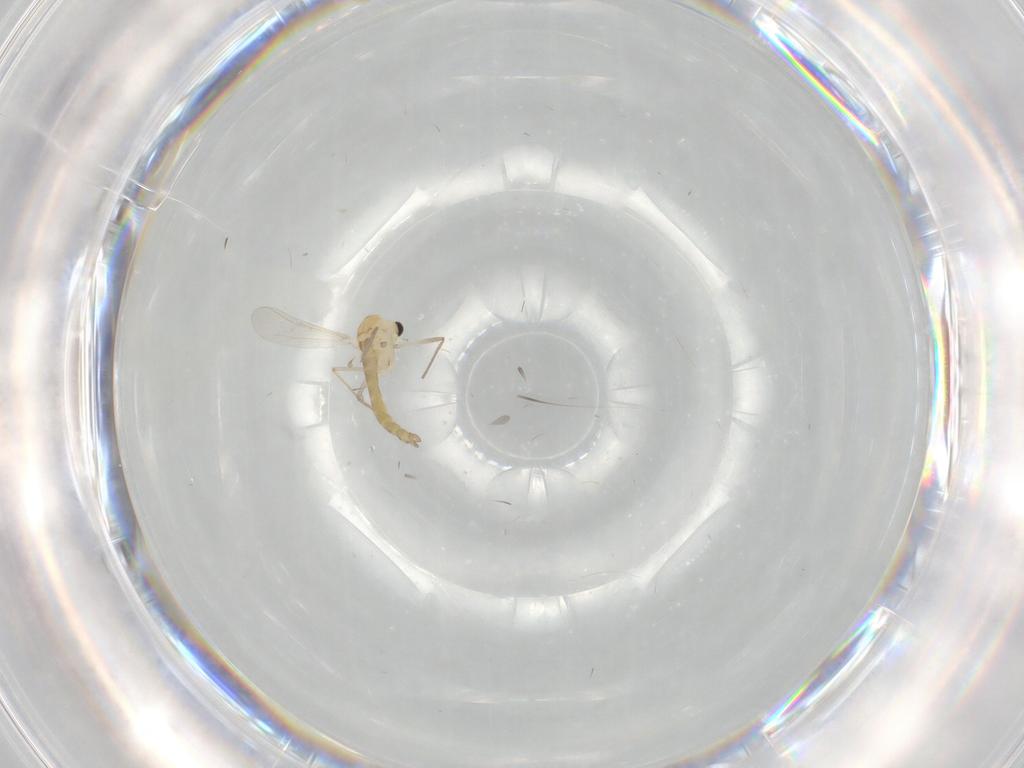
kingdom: Animalia
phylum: Arthropoda
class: Insecta
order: Diptera
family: Chironomidae
